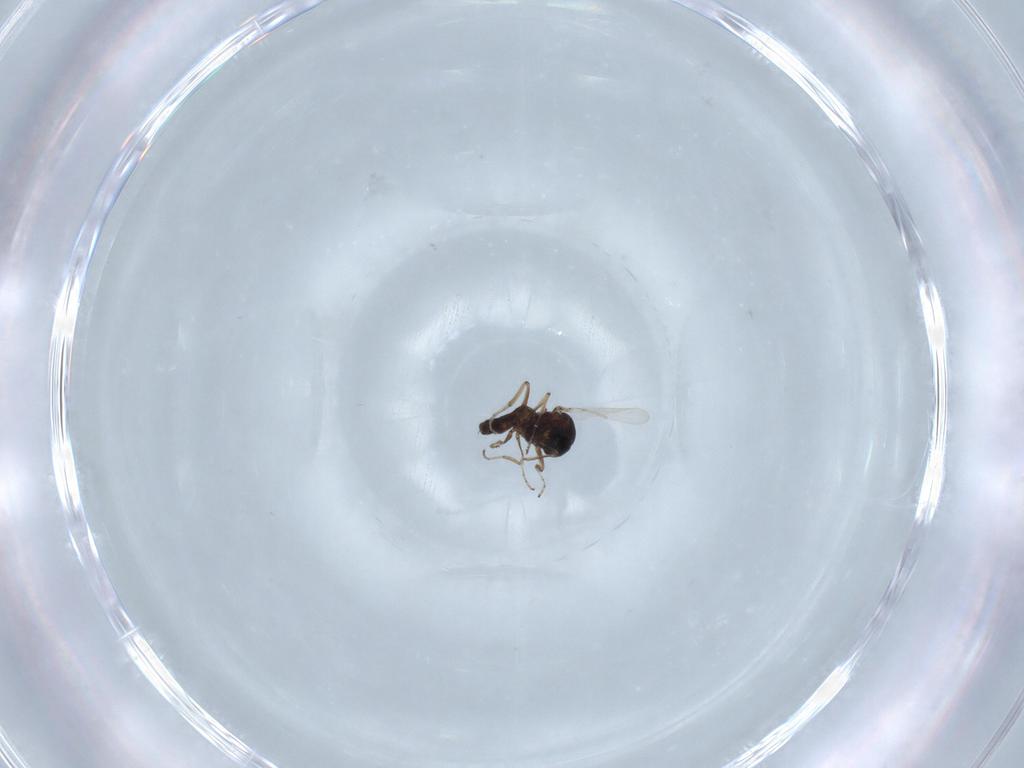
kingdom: Animalia
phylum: Arthropoda
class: Insecta
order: Diptera
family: Ceratopogonidae
